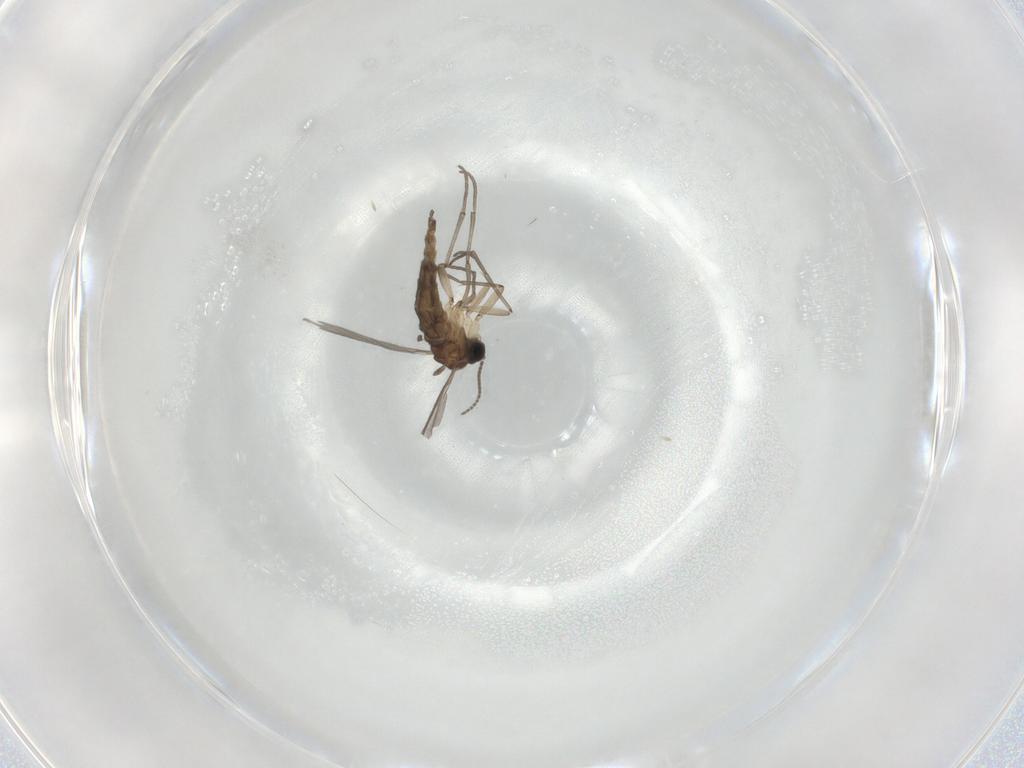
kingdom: Animalia
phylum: Arthropoda
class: Insecta
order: Diptera
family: Sciaridae
